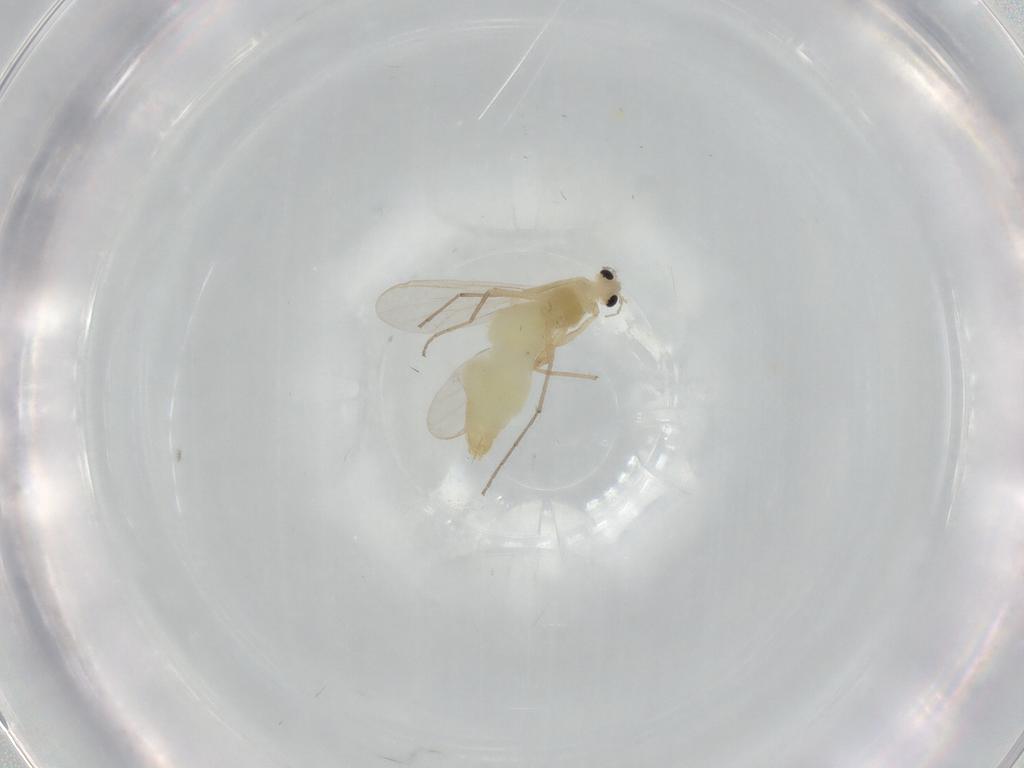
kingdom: Animalia
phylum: Arthropoda
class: Insecta
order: Diptera
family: Chironomidae
